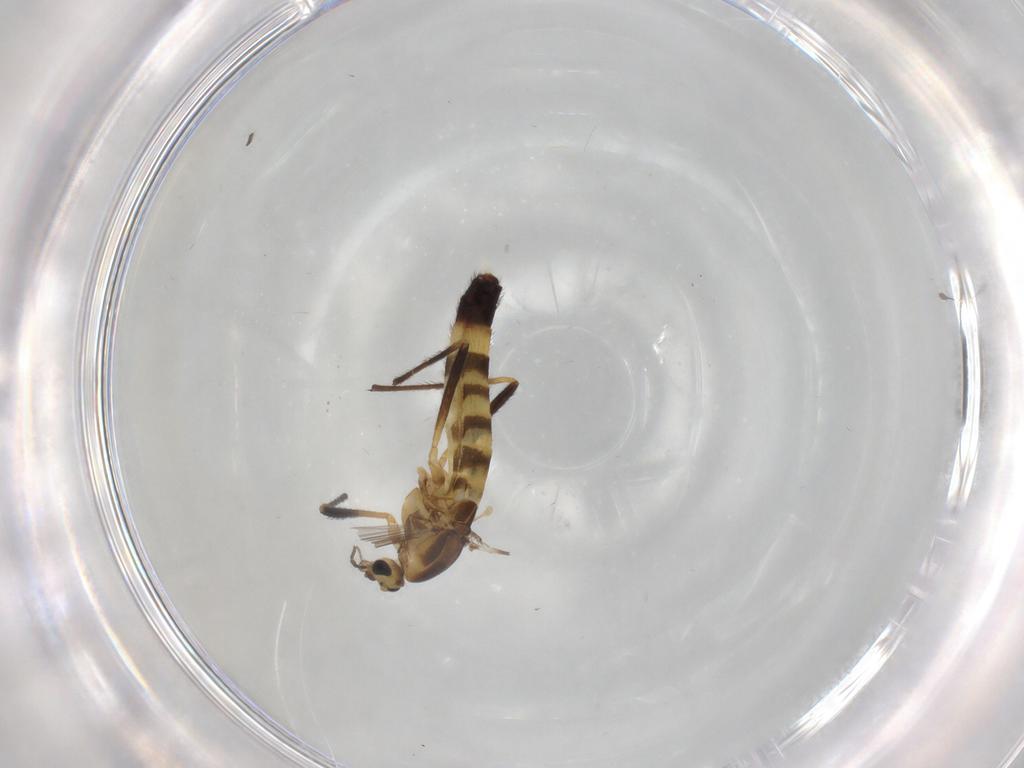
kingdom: Animalia
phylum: Arthropoda
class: Insecta
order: Diptera
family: Chironomidae
